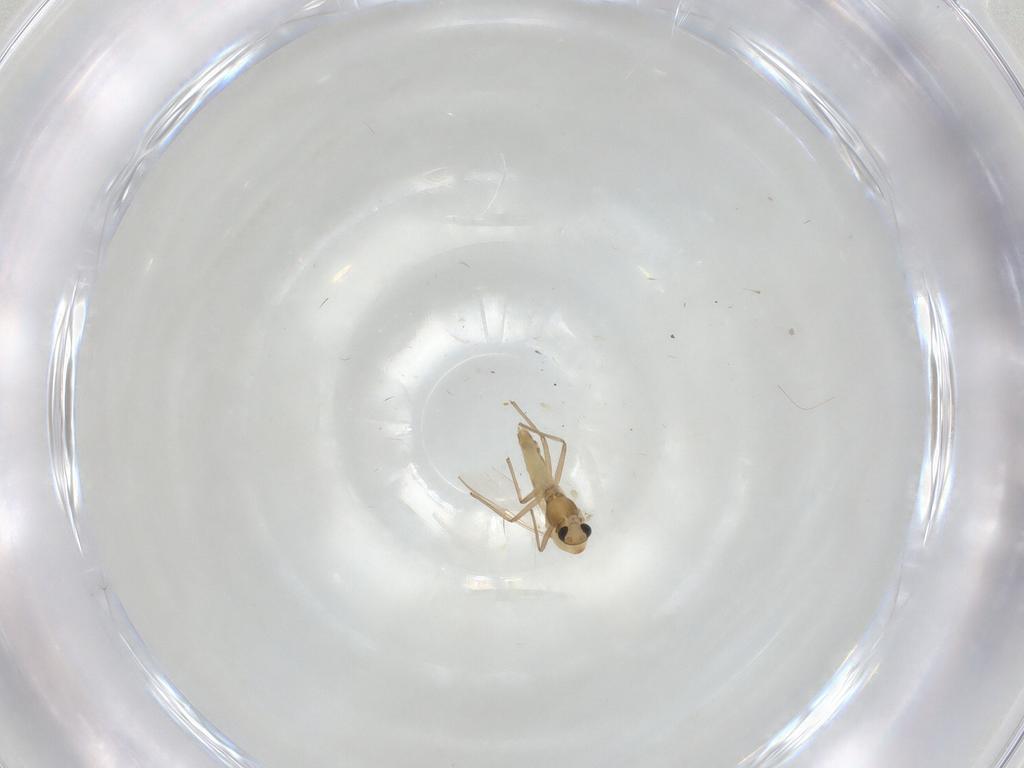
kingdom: Animalia
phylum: Arthropoda
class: Insecta
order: Diptera
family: Chironomidae
